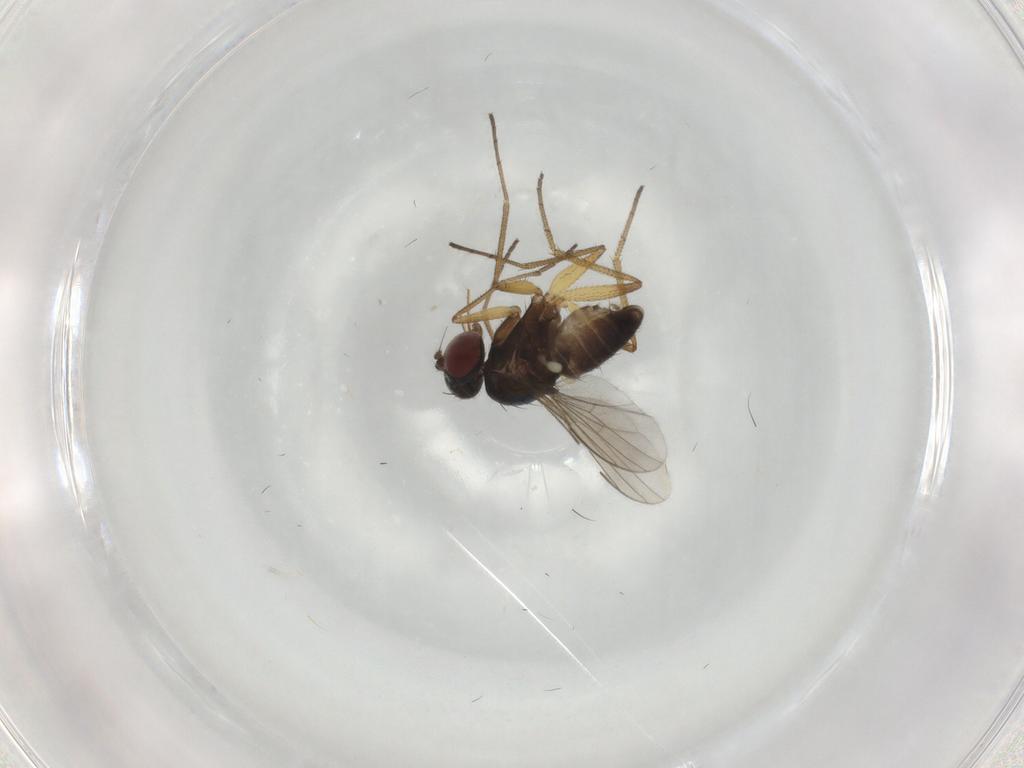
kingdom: Animalia
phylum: Arthropoda
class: Insecta
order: Diptera
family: Dolichopodidae
